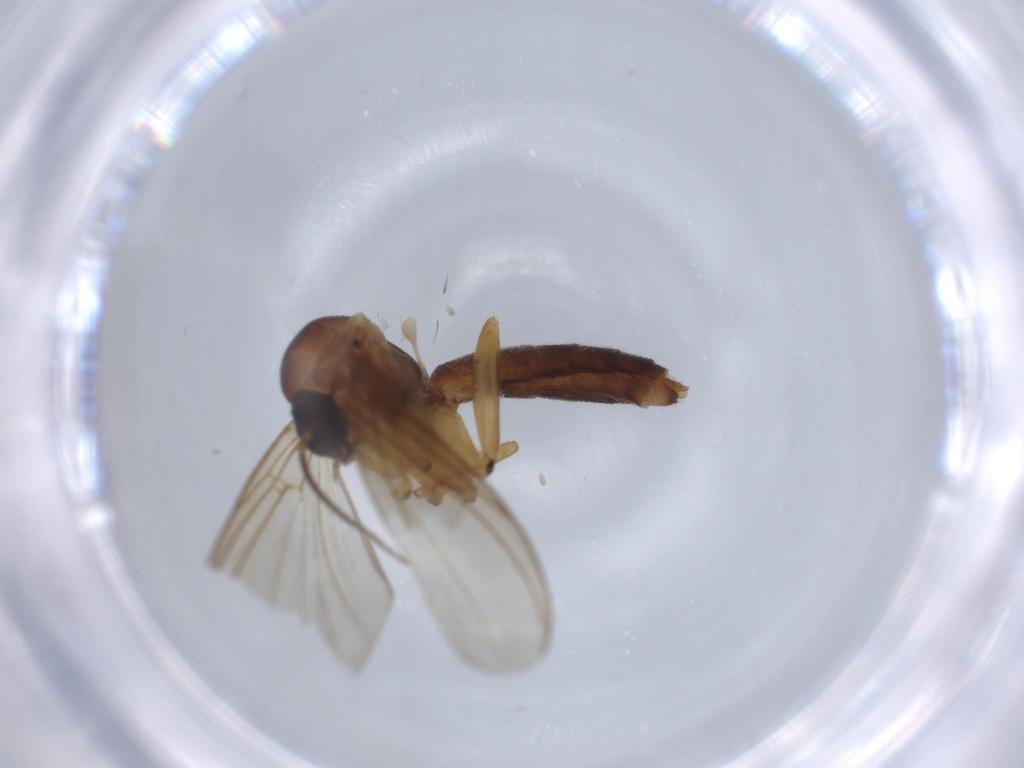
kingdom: Animalia
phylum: Arthropoda
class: Insecta
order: Diptera
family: Mycetophilidae
